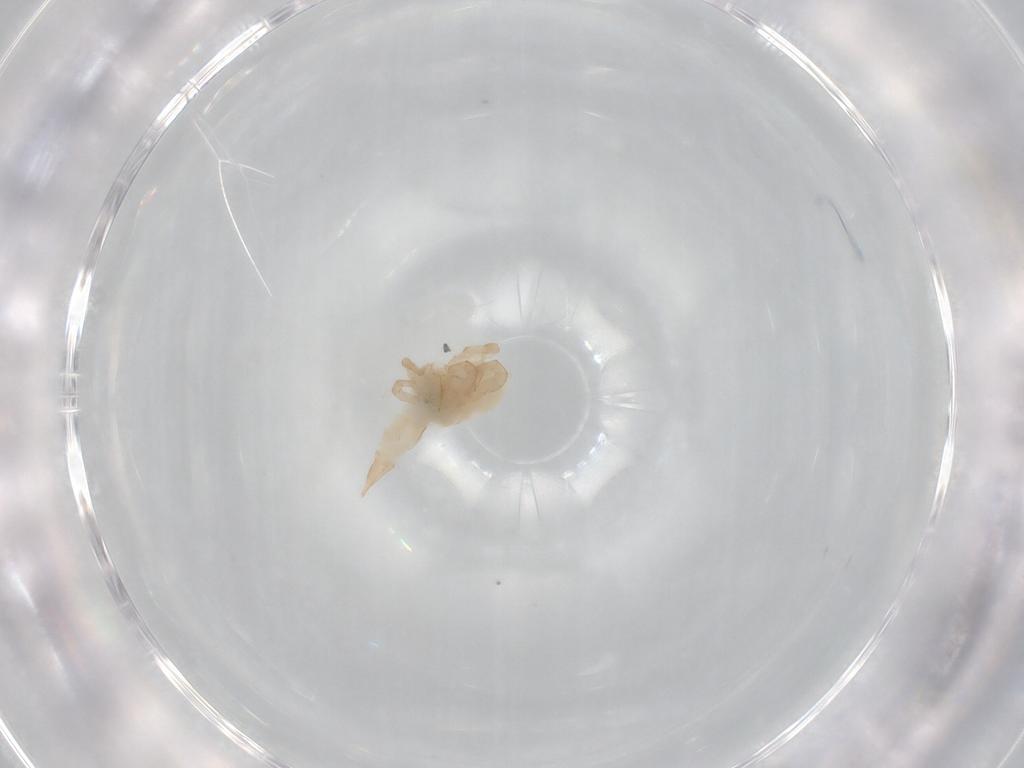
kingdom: Animalia
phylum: Arthropoda
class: Arachnida
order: Trombidiformes
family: Bdellidae
